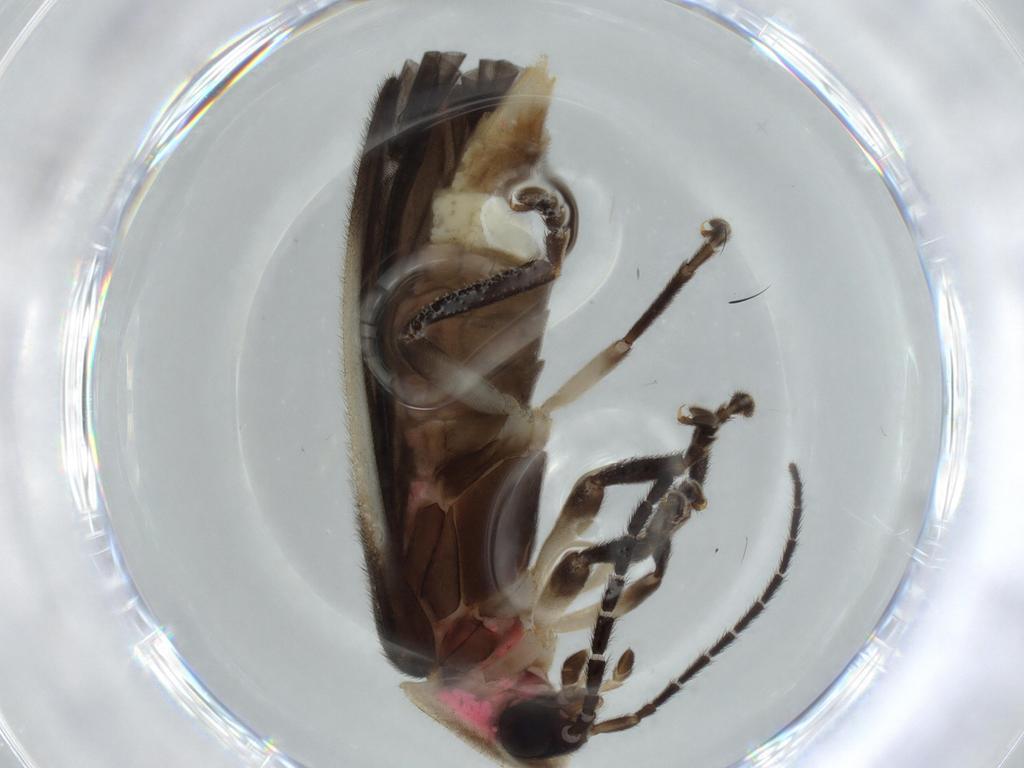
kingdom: Animalia
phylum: Arthropoda
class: Insecta
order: Coleoptera
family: Lampyridae
